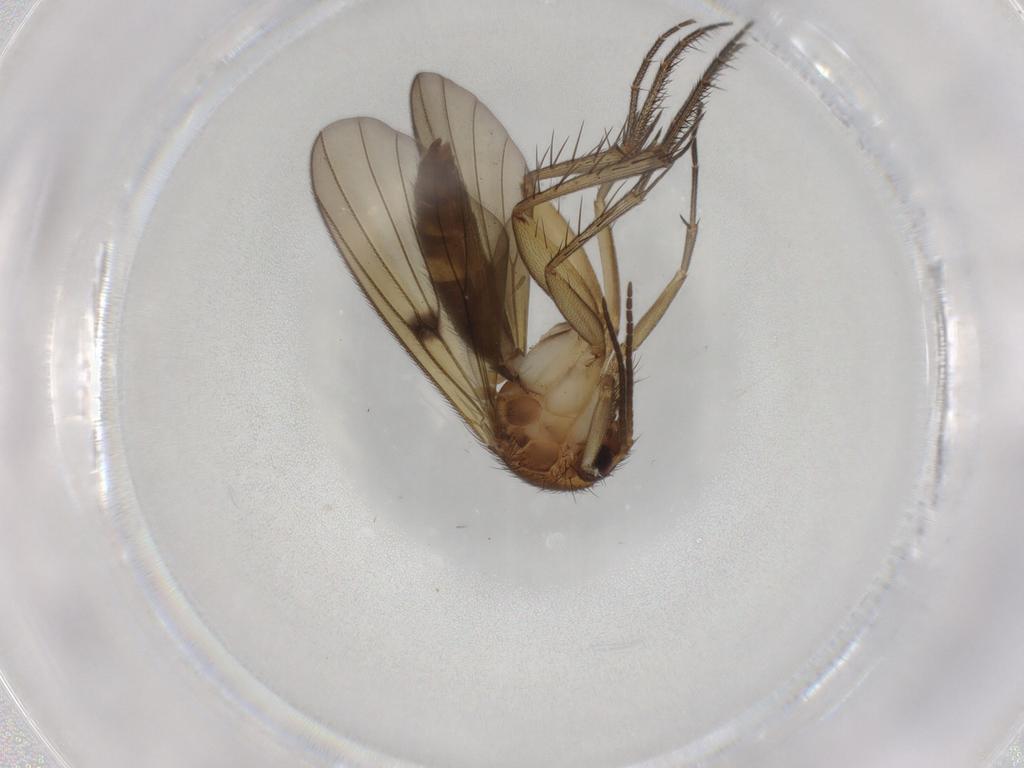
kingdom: Animalia
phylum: Arthropoda
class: Insecta
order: Diptera
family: Mycetophilidae
